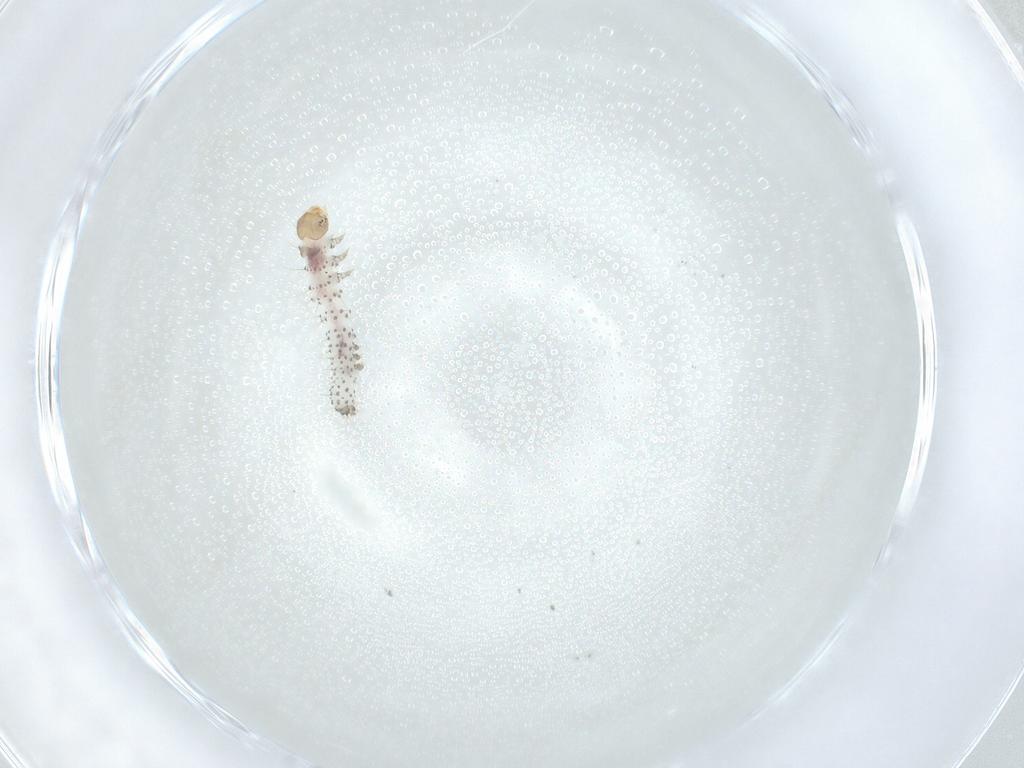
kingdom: Animalia
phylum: Arthropoda
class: Insecta
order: Lepidoptera
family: Erebidae
